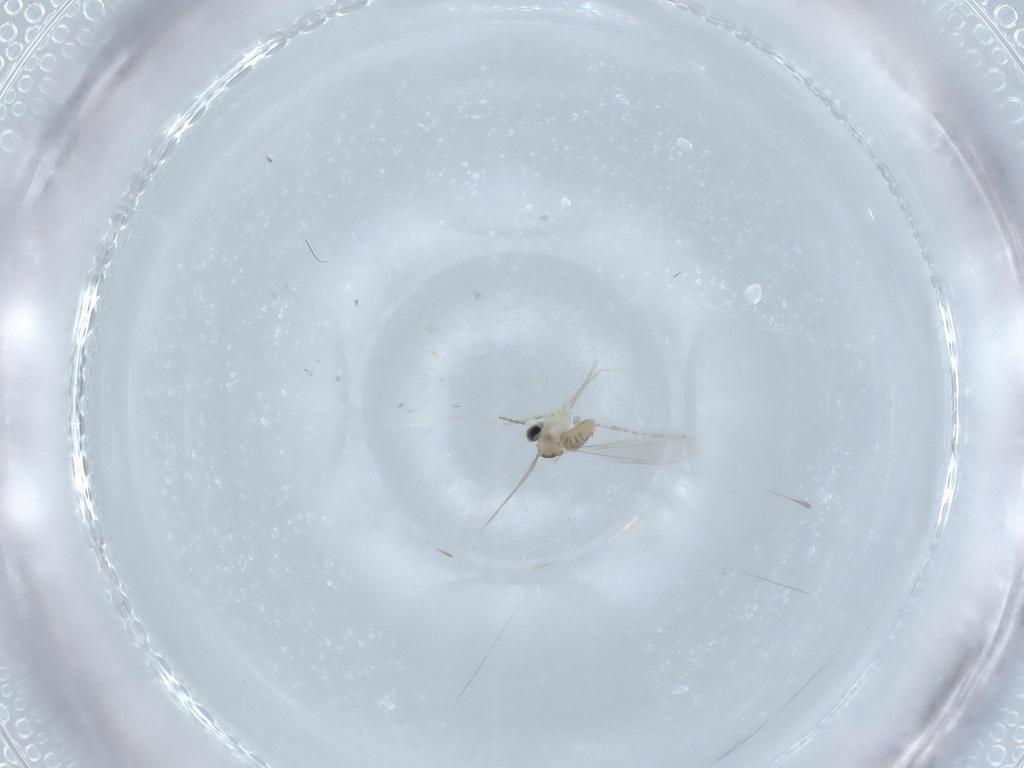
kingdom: Animalia
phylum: Arthropoda
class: Insecta
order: Diptera
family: Cecidomyiidae
